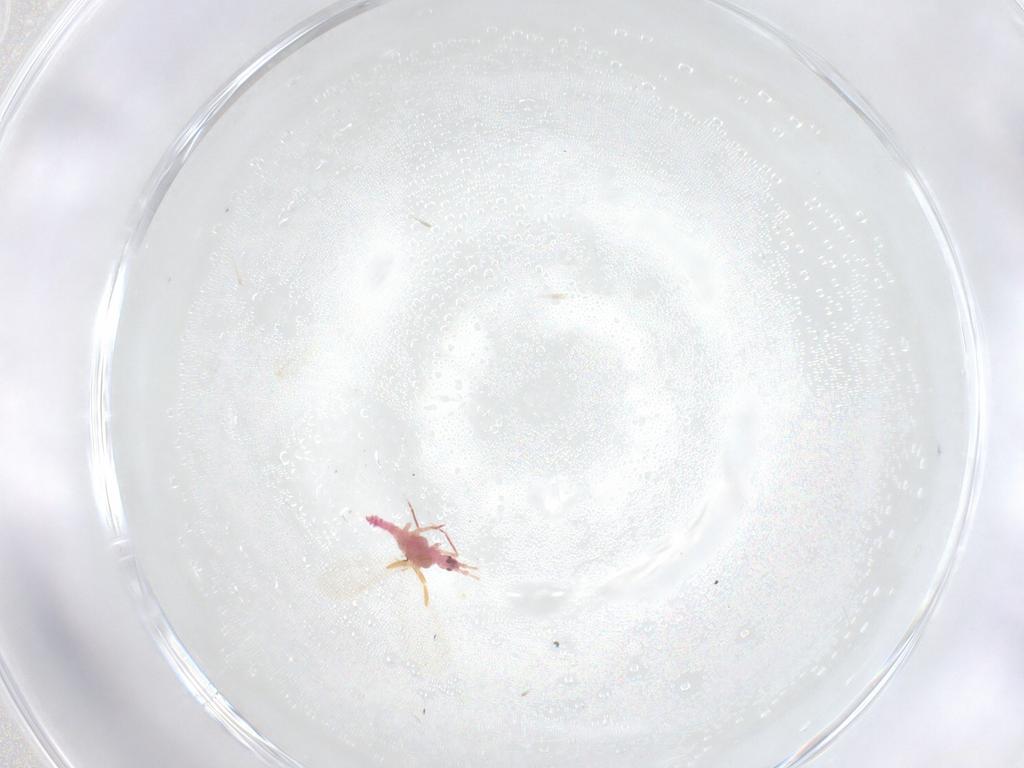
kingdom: Animalia
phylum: Arthropoda
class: Insecta
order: Hemiptera
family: Aleyrodidae
